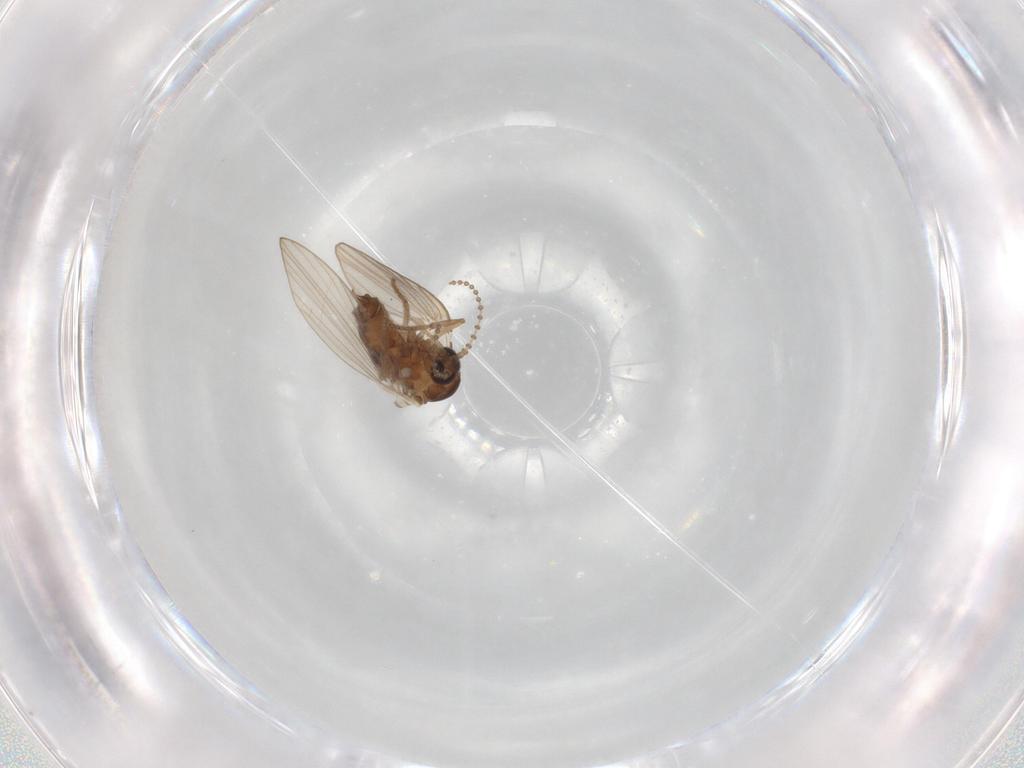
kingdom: Animalia
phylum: Arthropoda
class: Insecta
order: Diptera
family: Psychodidae
